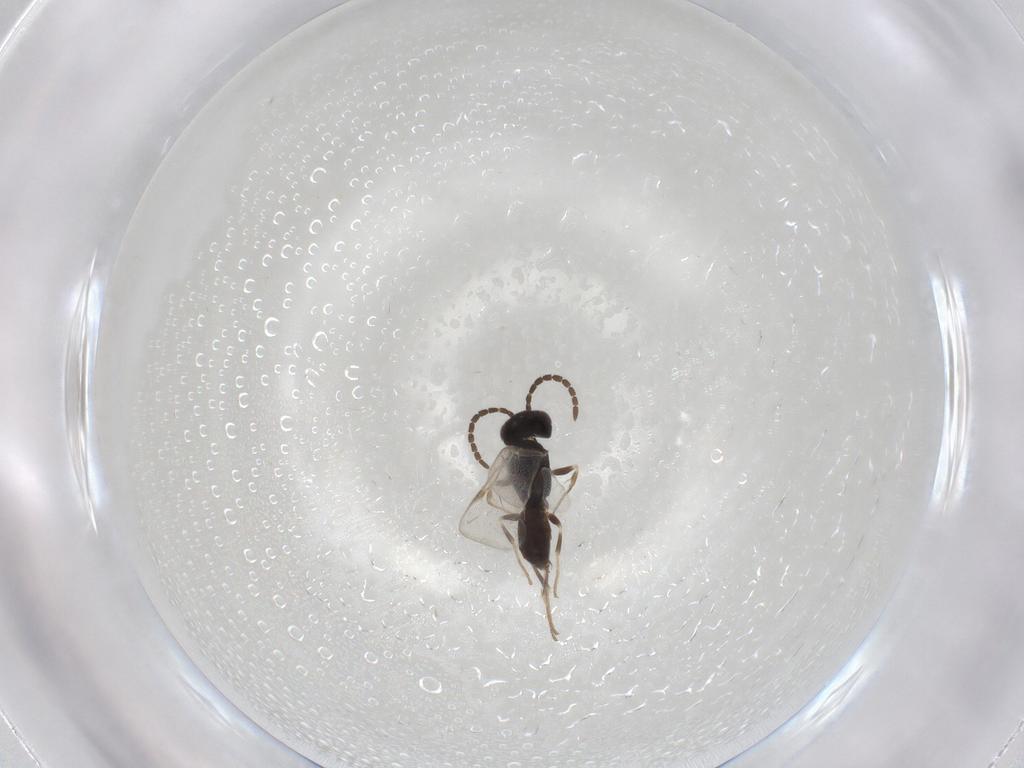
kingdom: Animalia
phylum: Arthropoda
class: Insecta
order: Hymenoptera
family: Dryinidae
